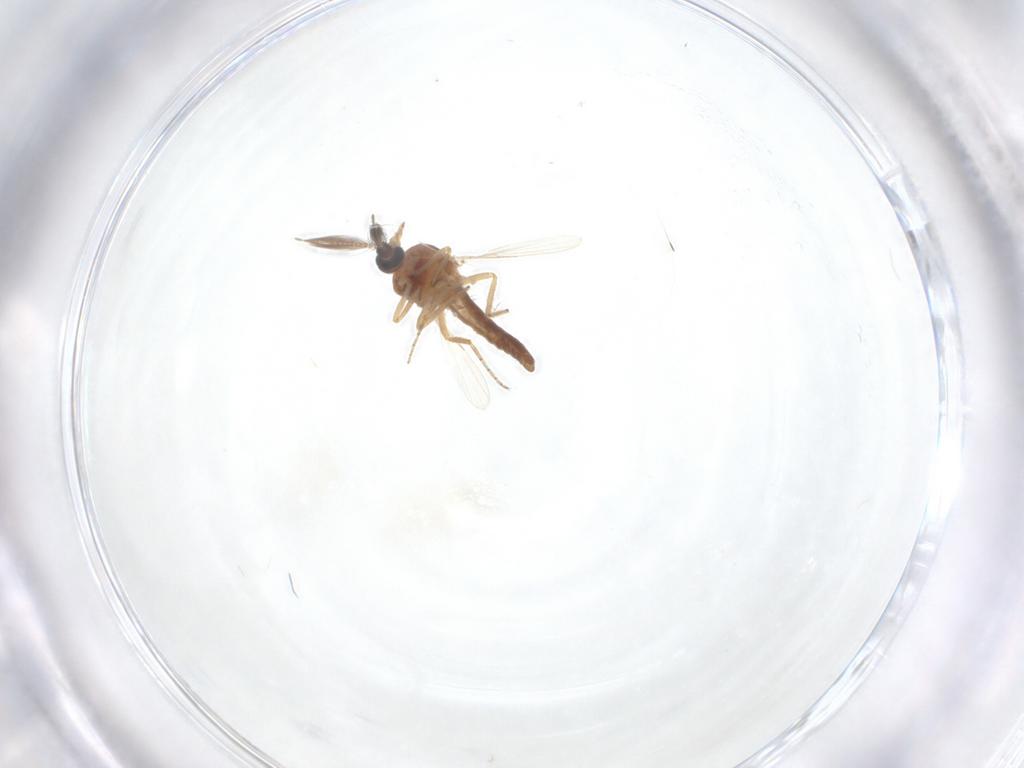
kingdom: Animalia
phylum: Arthropoda
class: Insecta
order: Diptera
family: Ceratopogonidae
